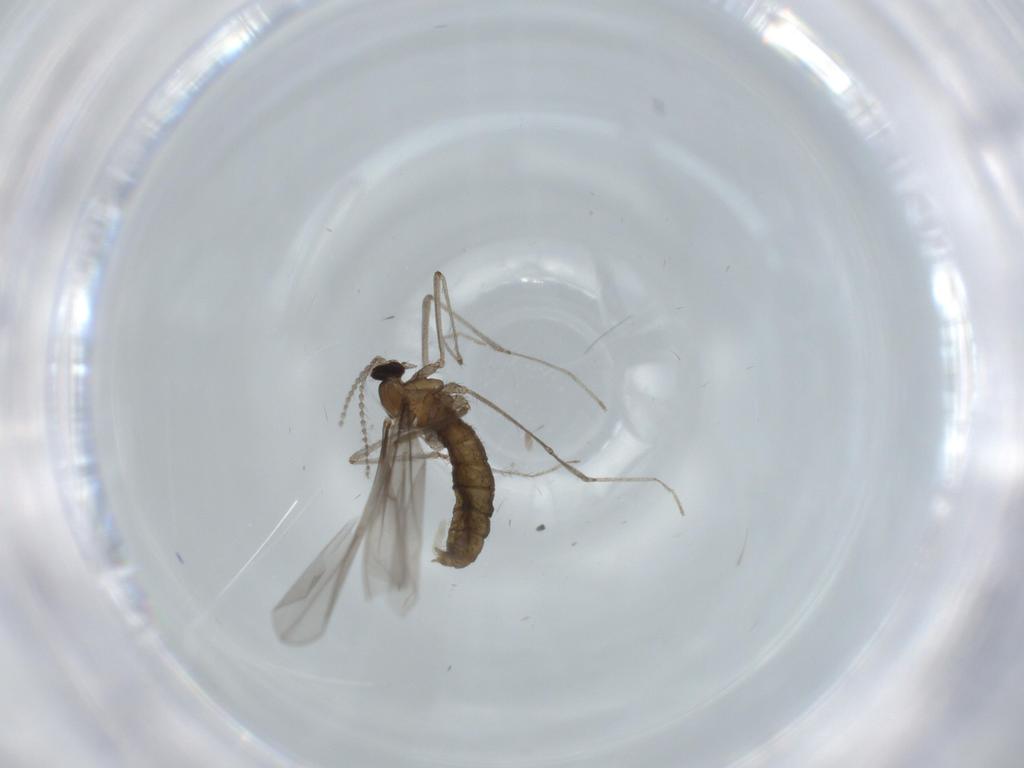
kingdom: Animalia
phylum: Arthropoda
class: Insecta
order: Diptera
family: Cecidomyiidae
